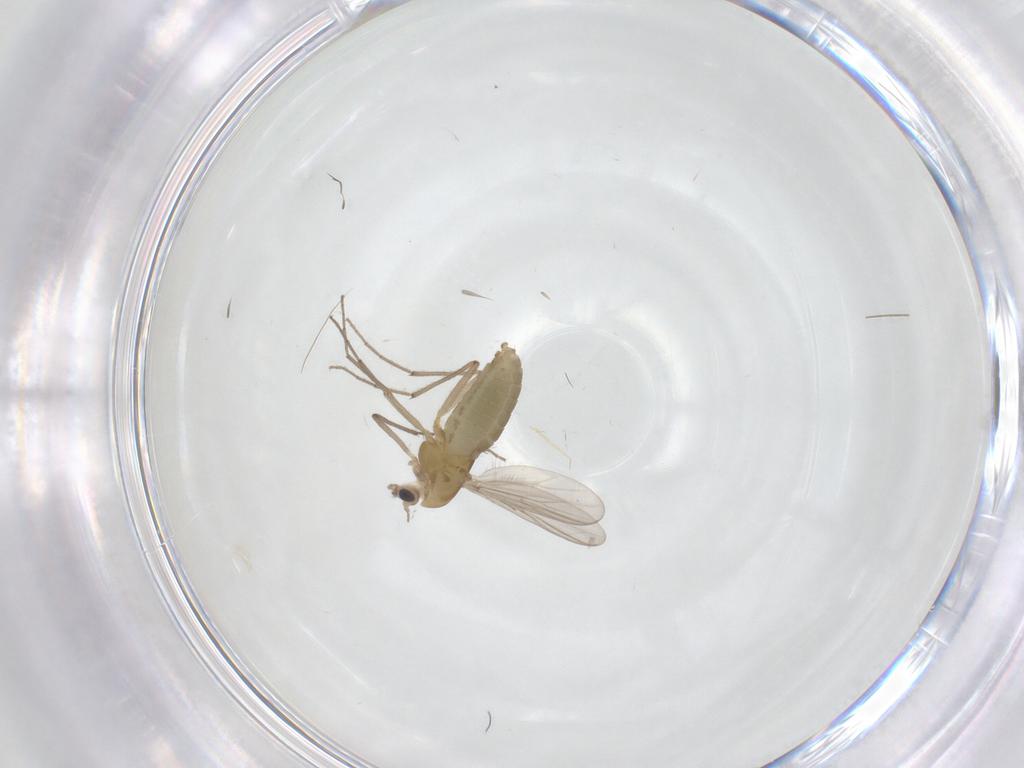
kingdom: Animalia
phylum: Arthropoda
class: Insecta
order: Diptera
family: Chironomidae
